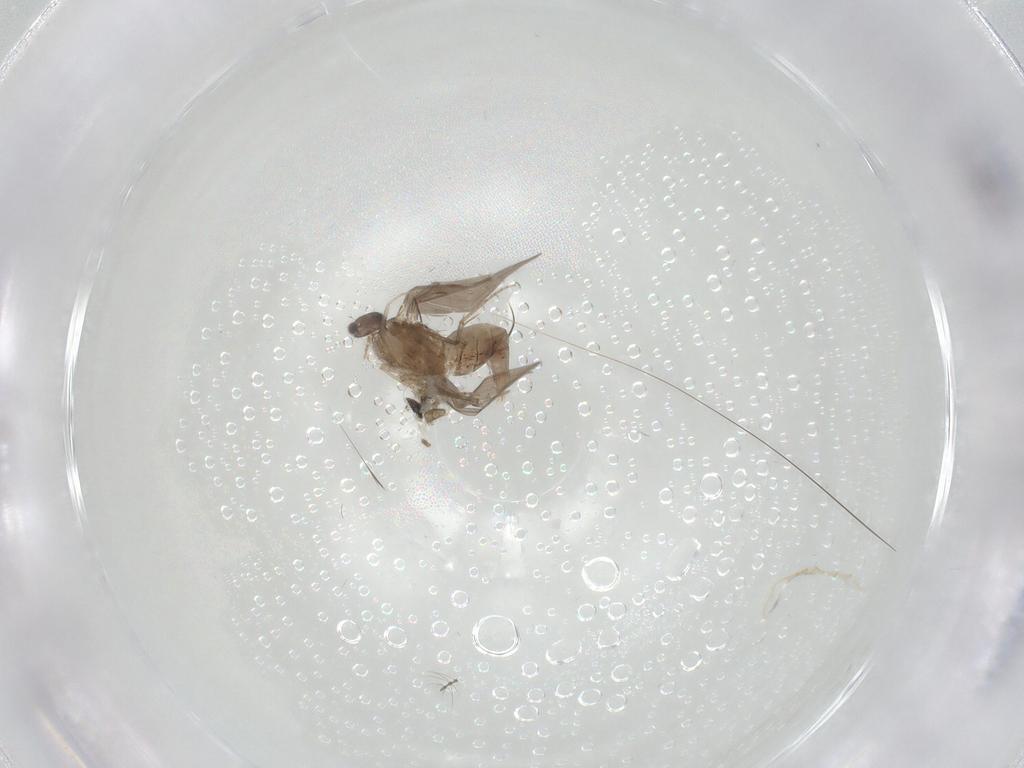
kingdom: Animalia
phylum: Arthropoda
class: Insecta
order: Diptera
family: Cecidomyiidae
